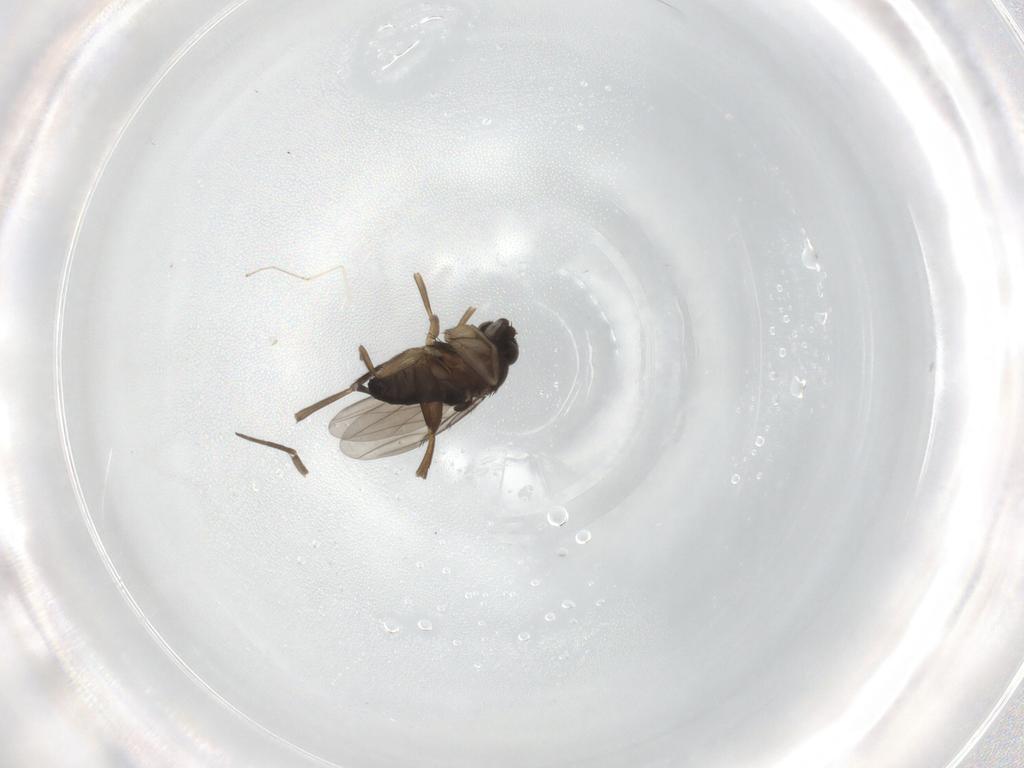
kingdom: Animalia
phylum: Arthropoda
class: Insecta
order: Diptera
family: Phoridae
